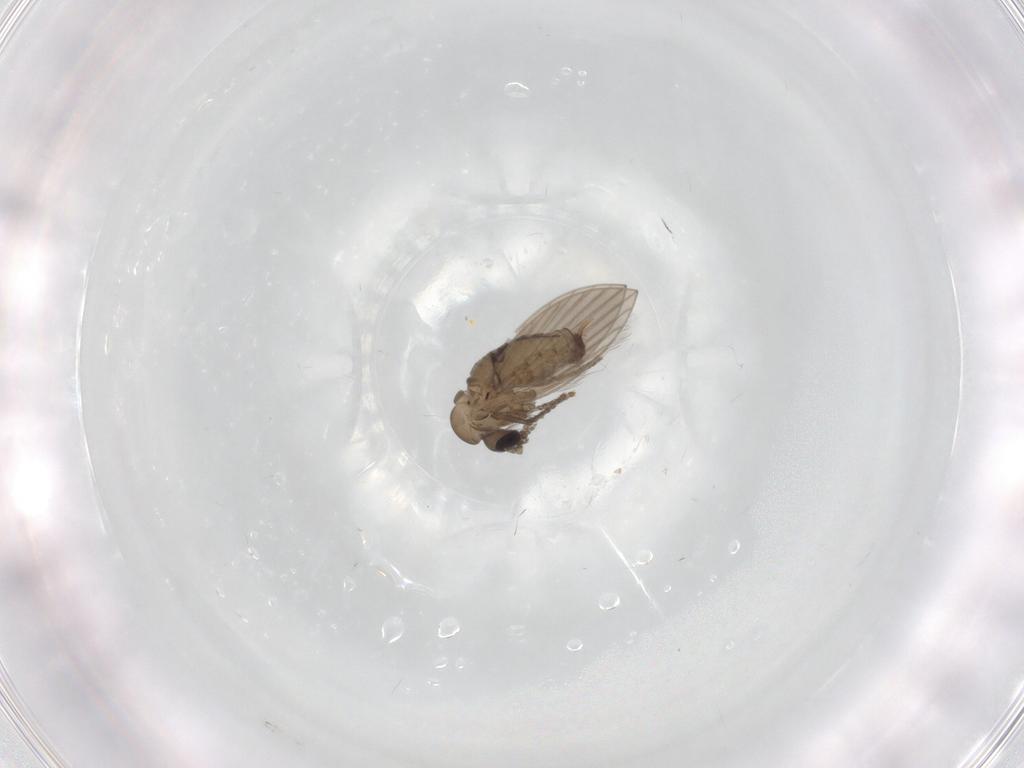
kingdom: Animalia
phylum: Arthropoda
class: Insecta
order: Diptera
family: Psychodidae
